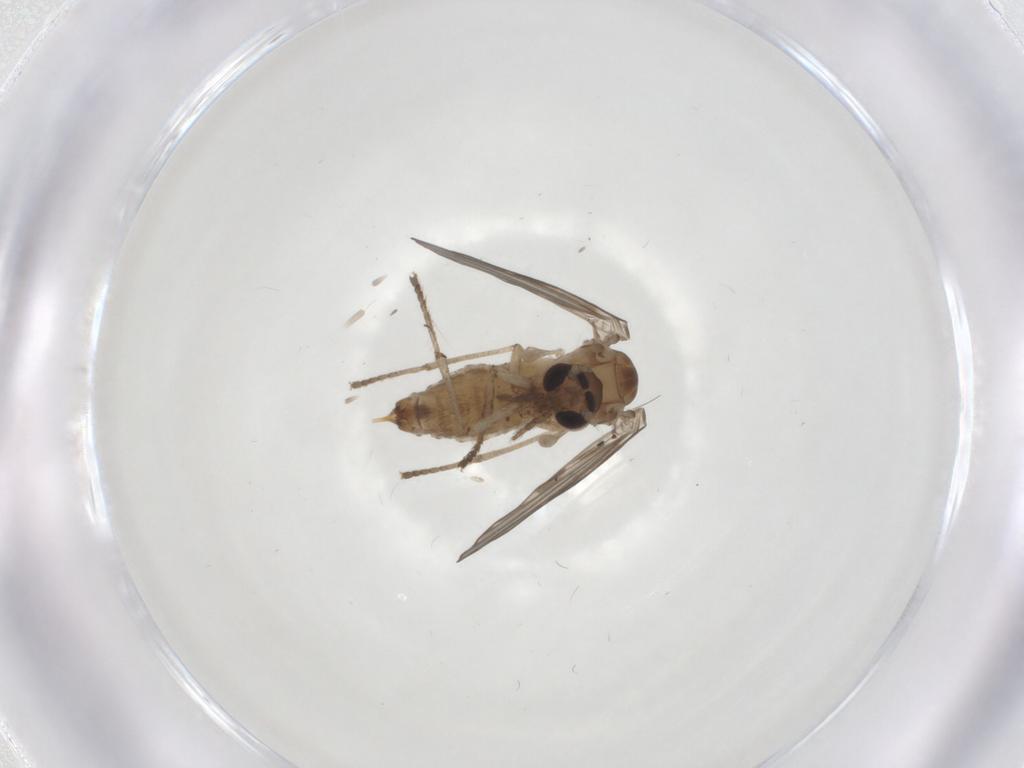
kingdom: Animalia
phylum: Arthropoda
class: Insecta
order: Diptera
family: Psychodidae
